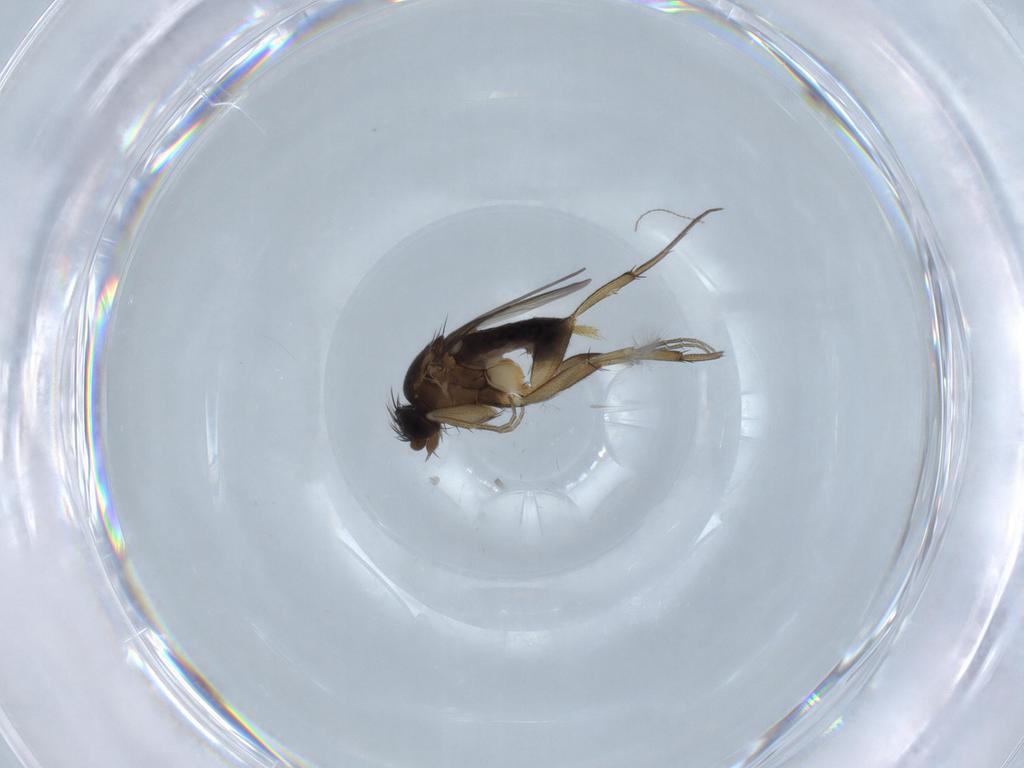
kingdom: Animalia
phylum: Arthropoda
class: Insecta
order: Diptera
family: Phoridae
